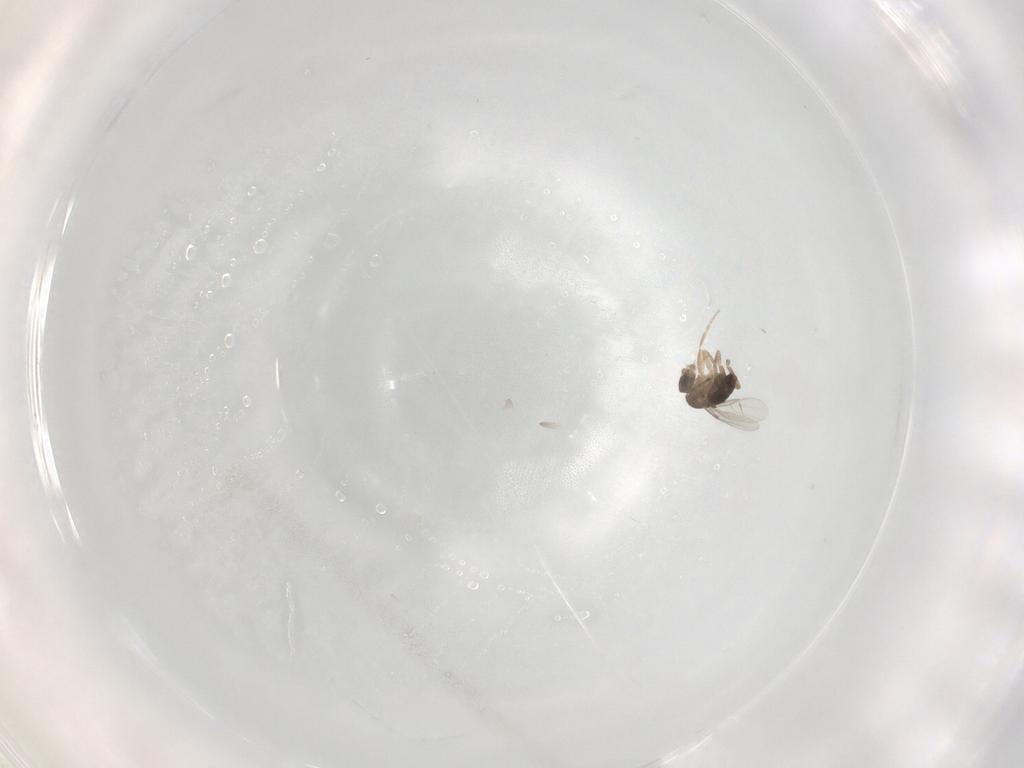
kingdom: Animalia
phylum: Arthropoda
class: Insecta
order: Diptera
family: Phoridae
